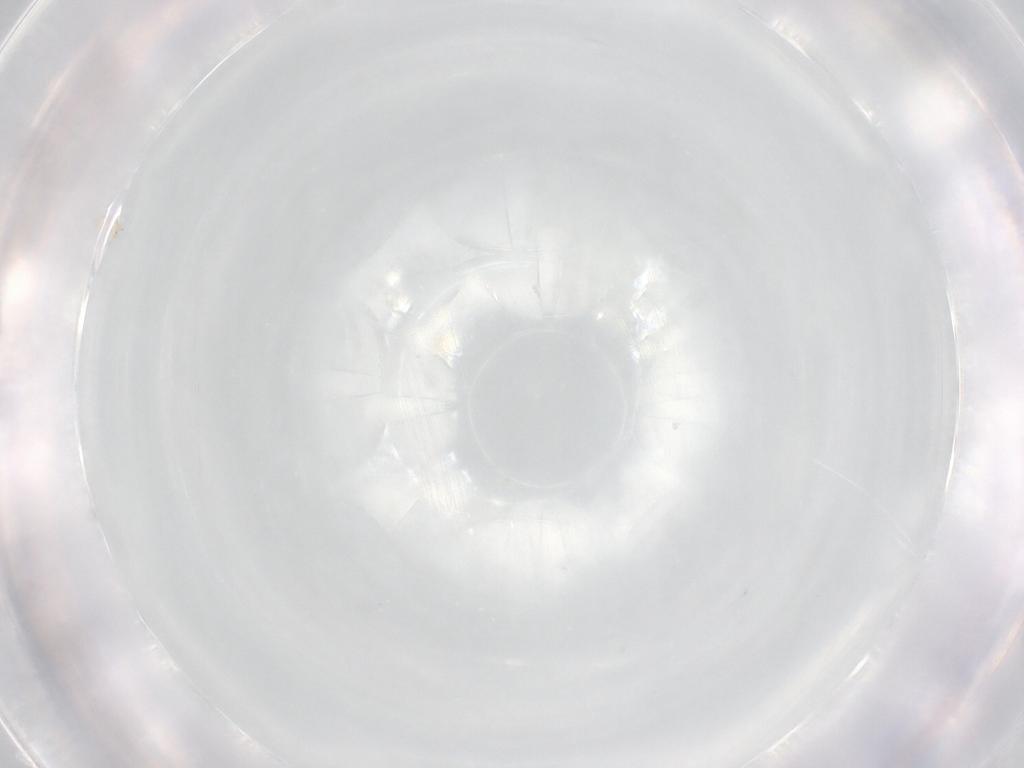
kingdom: Animalia
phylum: Arthropoda
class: Arachnida
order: Sarcoptiformes
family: Oribatulidae
